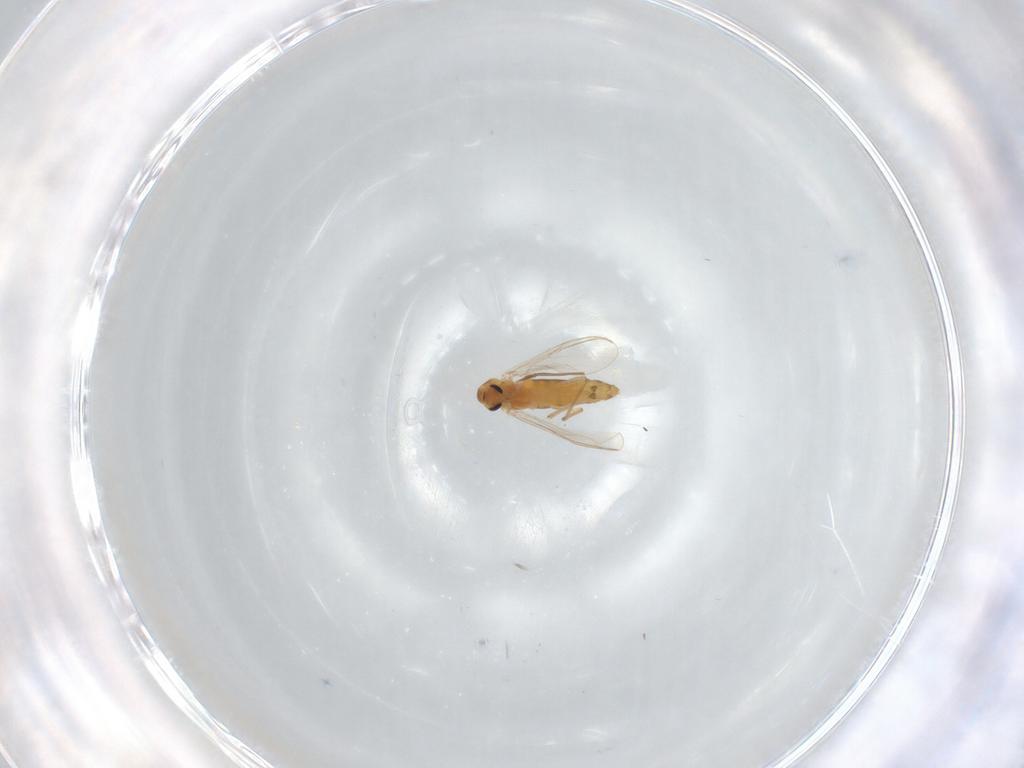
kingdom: Animalia
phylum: Arthropoda
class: Insecta
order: Diptera
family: Chironomidae
